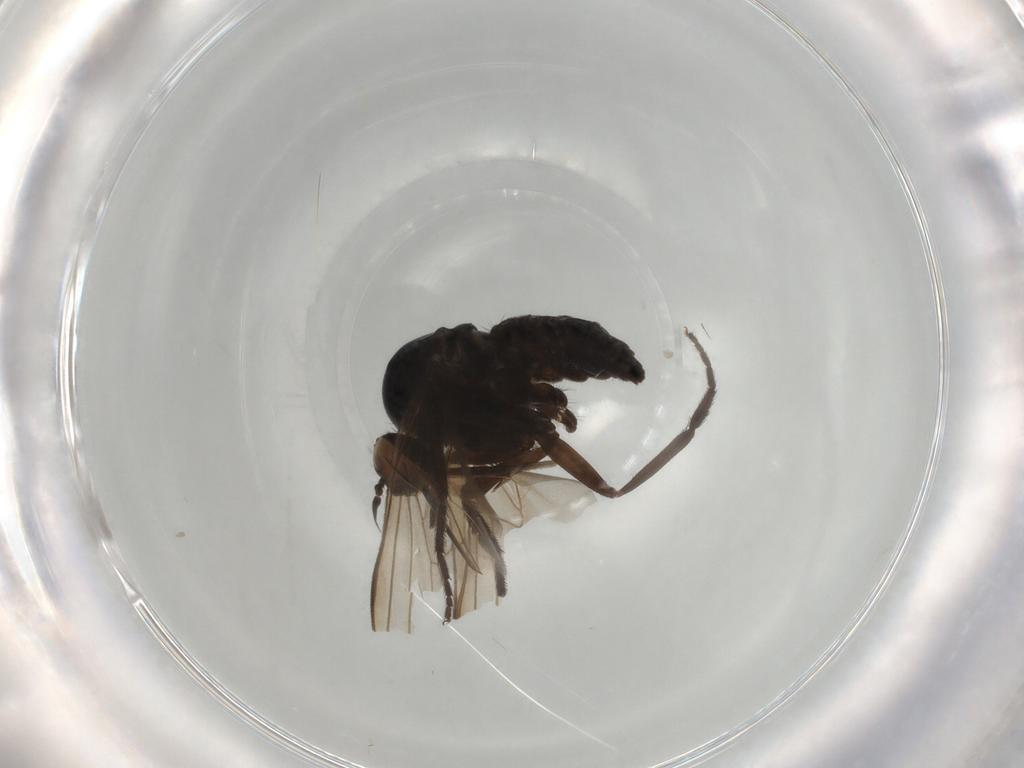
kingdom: Animalia
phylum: Arthropoda
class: Insecta
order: Diptera
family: Empididae
